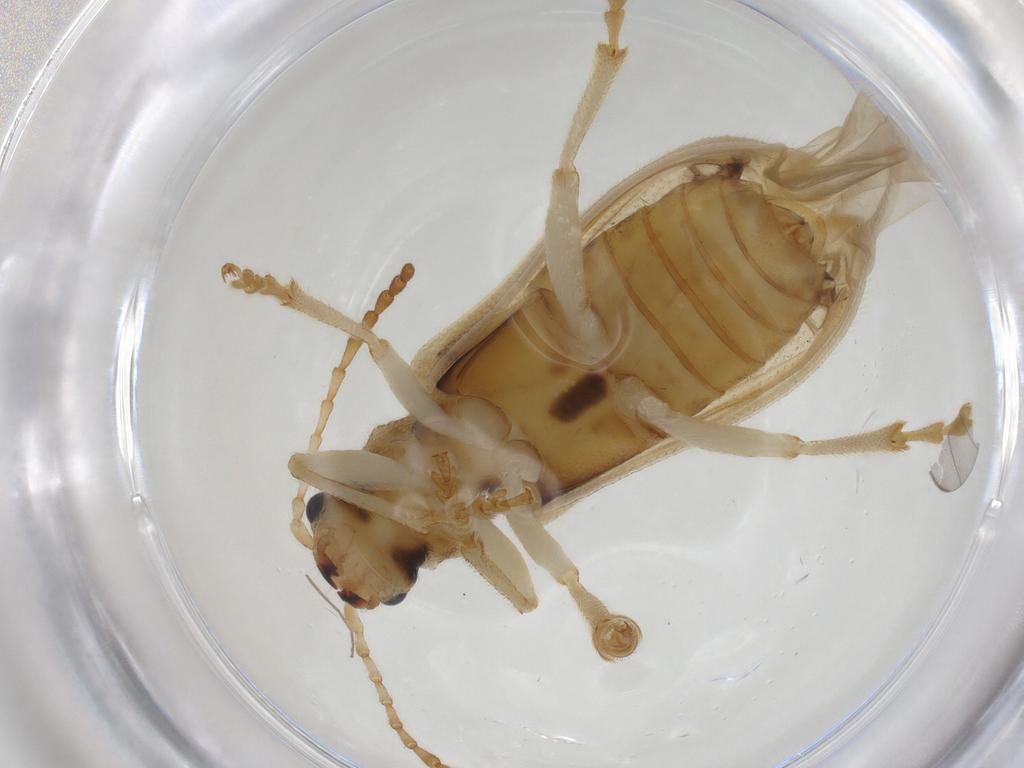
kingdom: Animalia
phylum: Arthropoda
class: Insecta
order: Coleoptera
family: Chrysomelidae
